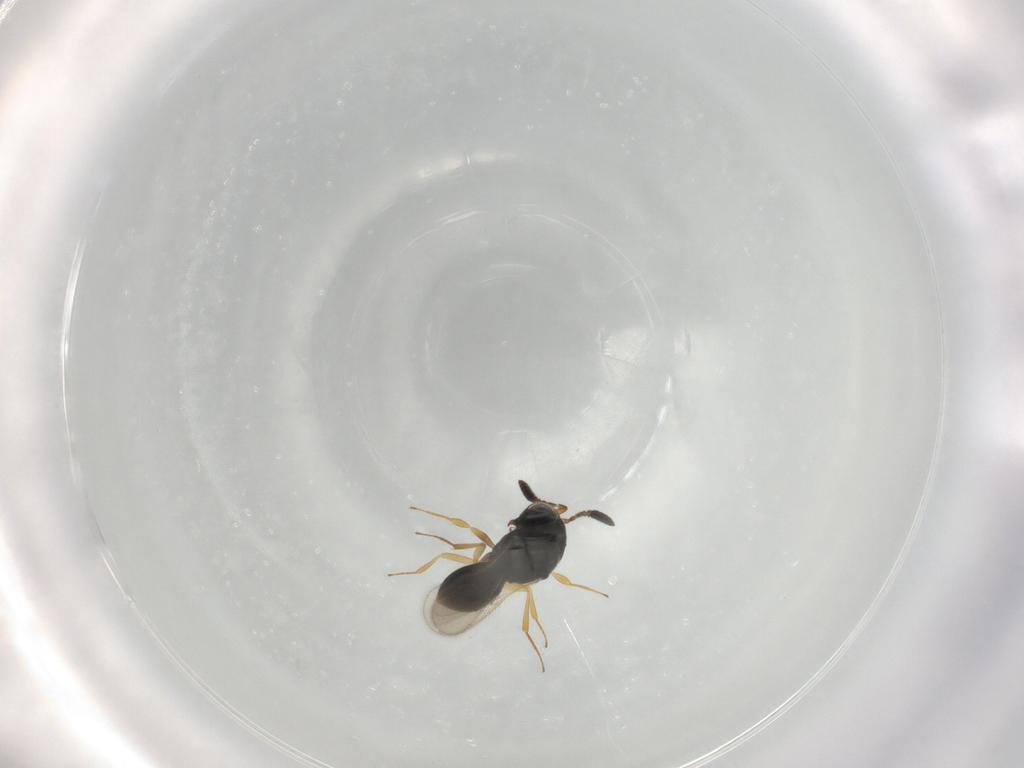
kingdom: Animalia
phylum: Arthropoda
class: Insecta
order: Hymenoptera
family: Scelionidae
